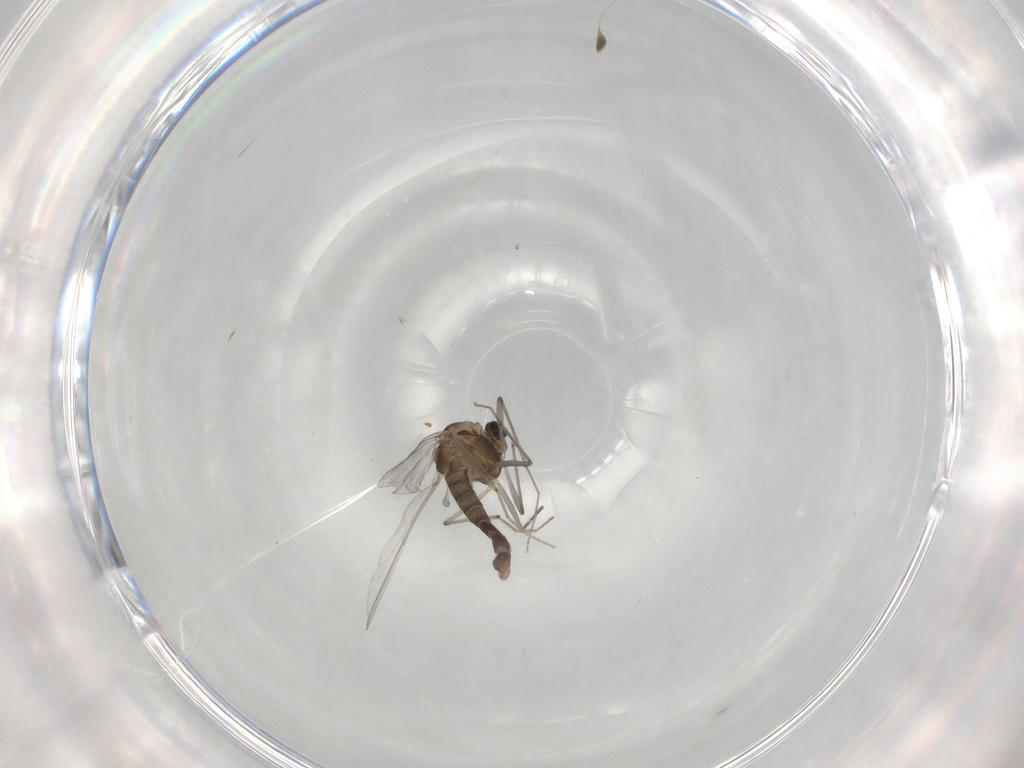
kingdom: Animalia
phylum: Arthropoda
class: Insecta
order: Diptera
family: Chironomidae
